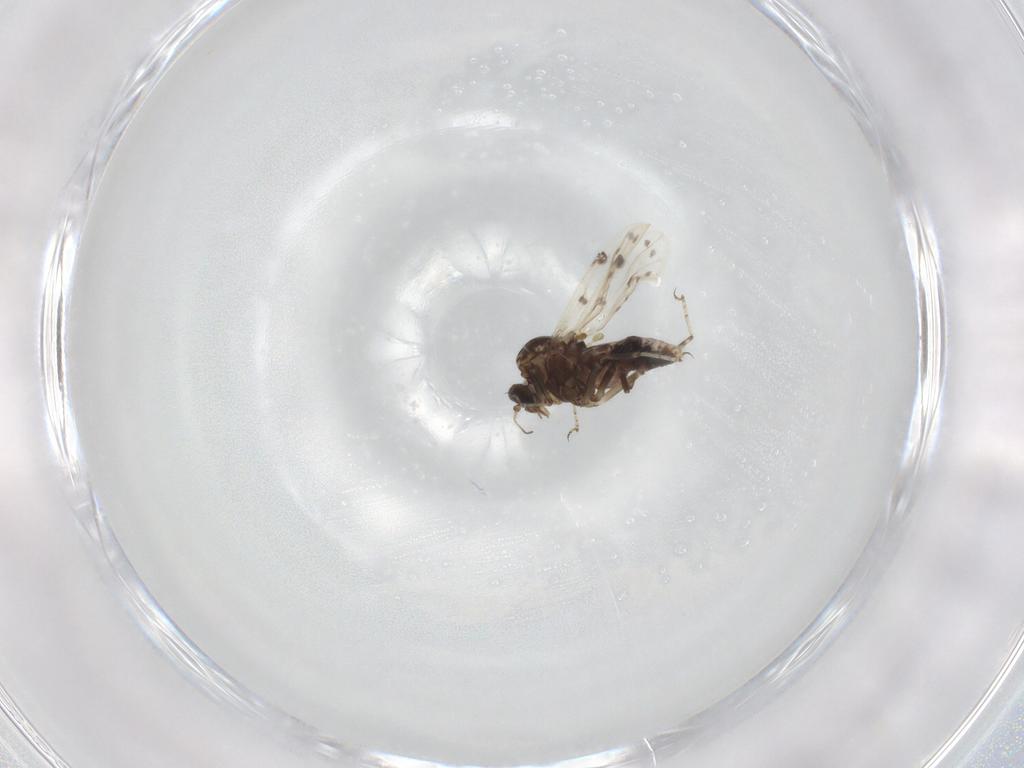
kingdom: Animalia
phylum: Arthropoda
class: Insecta
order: Diptera
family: Ceratopogonidae
